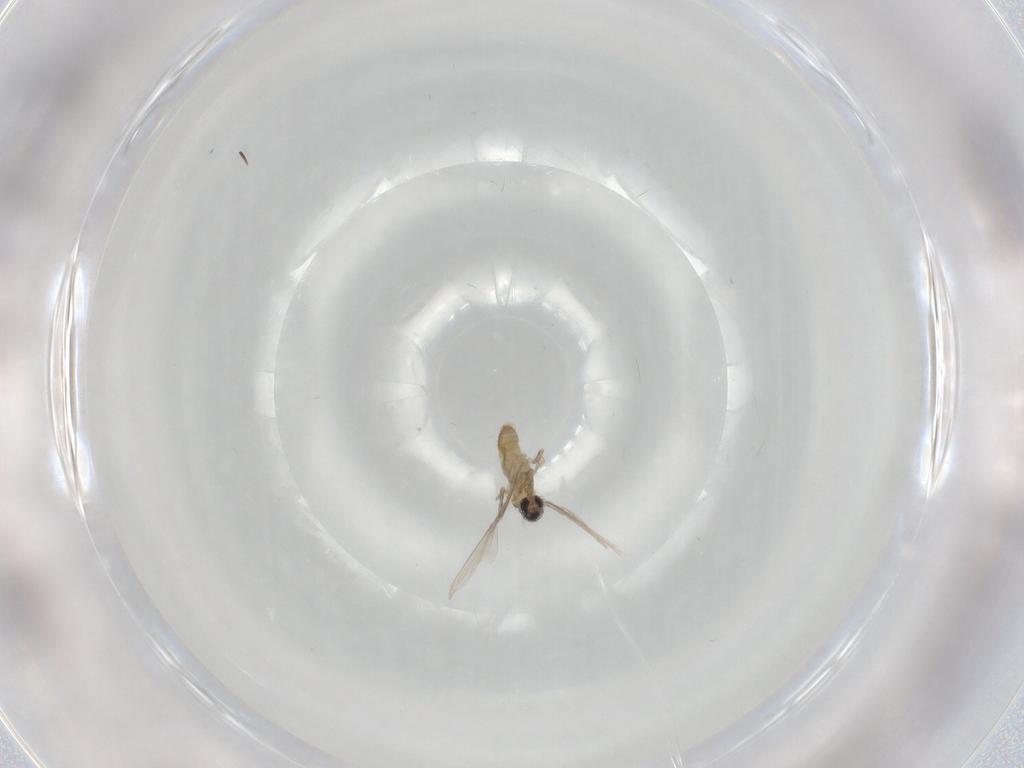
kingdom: Animalia
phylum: Arthropoda
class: Insecta
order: Diptera
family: Cecidomyiidae
